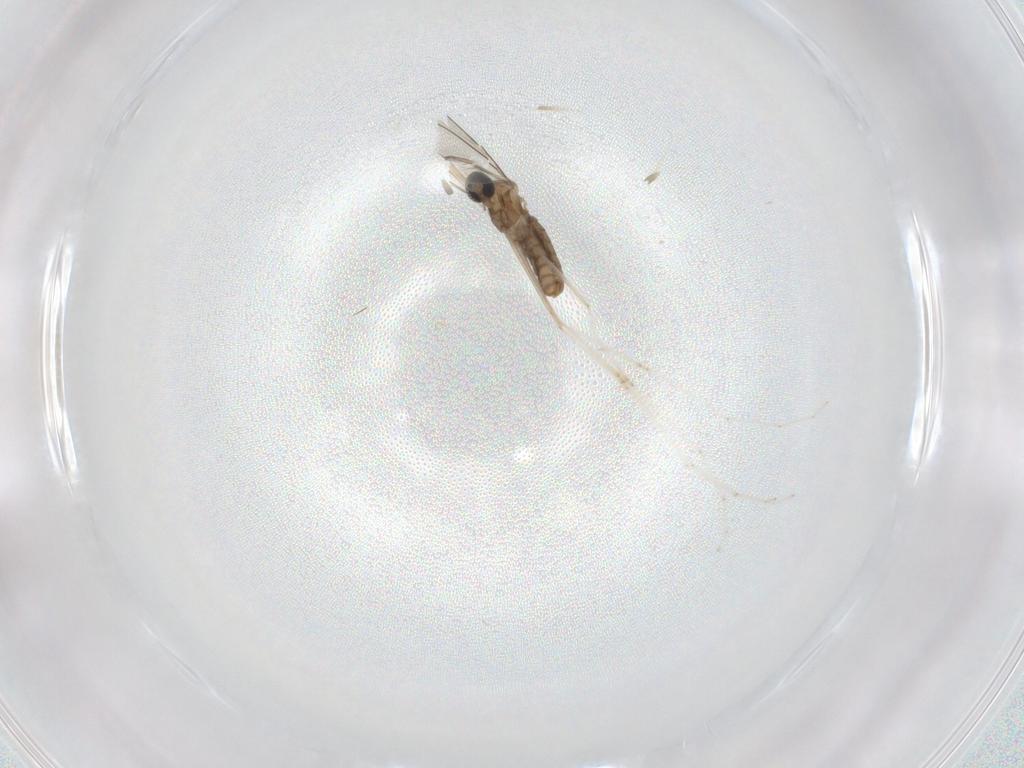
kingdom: Animalia
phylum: Arthropoda
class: Insecta
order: Diptera
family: Cecidomyiidae
